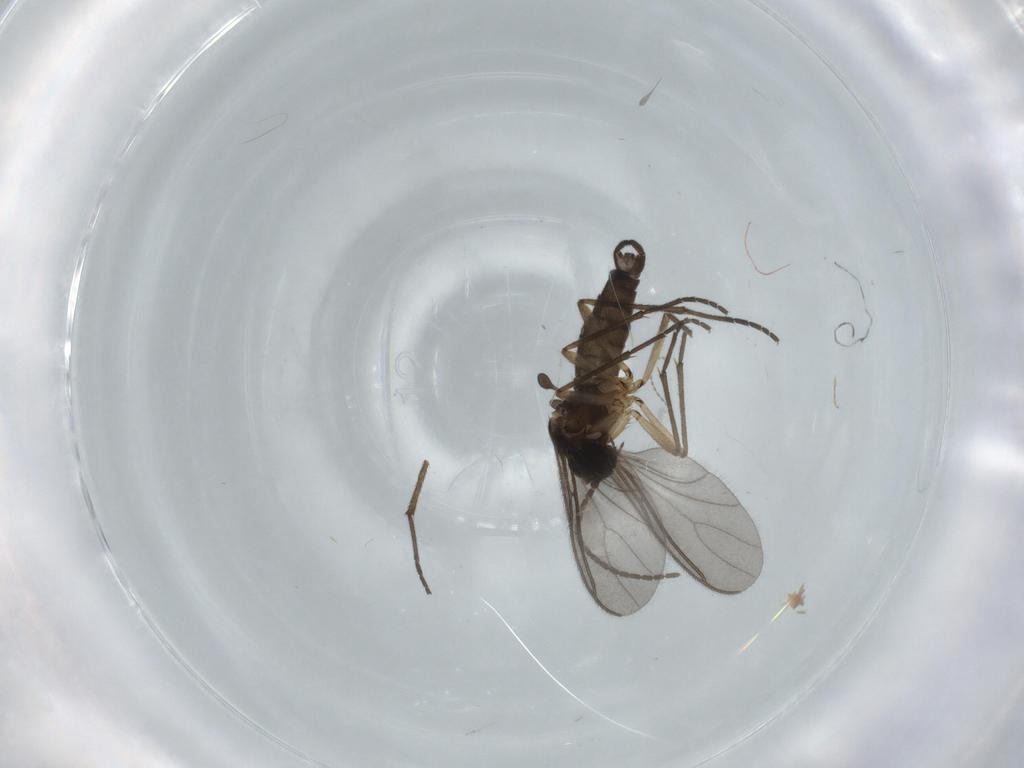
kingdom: Animalia
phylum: Arthropoda
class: Insecta
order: Diptera
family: Sciaridae
